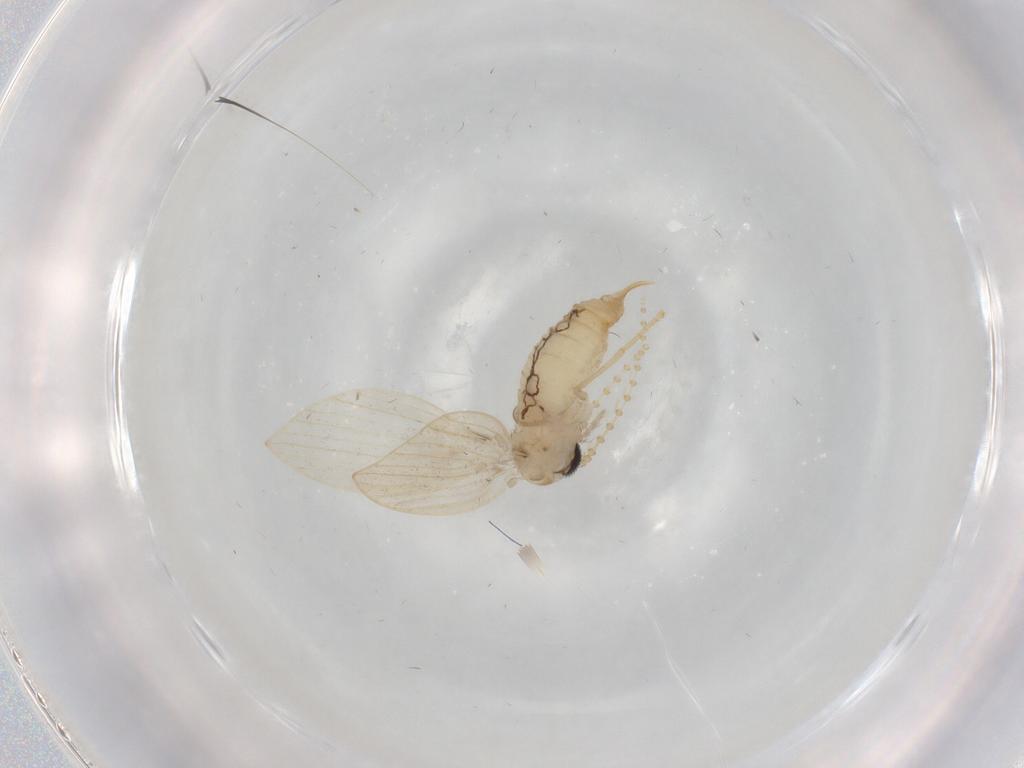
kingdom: Animalia
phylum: Arthropoda
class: Insecta
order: Diptera
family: Psychodidae
